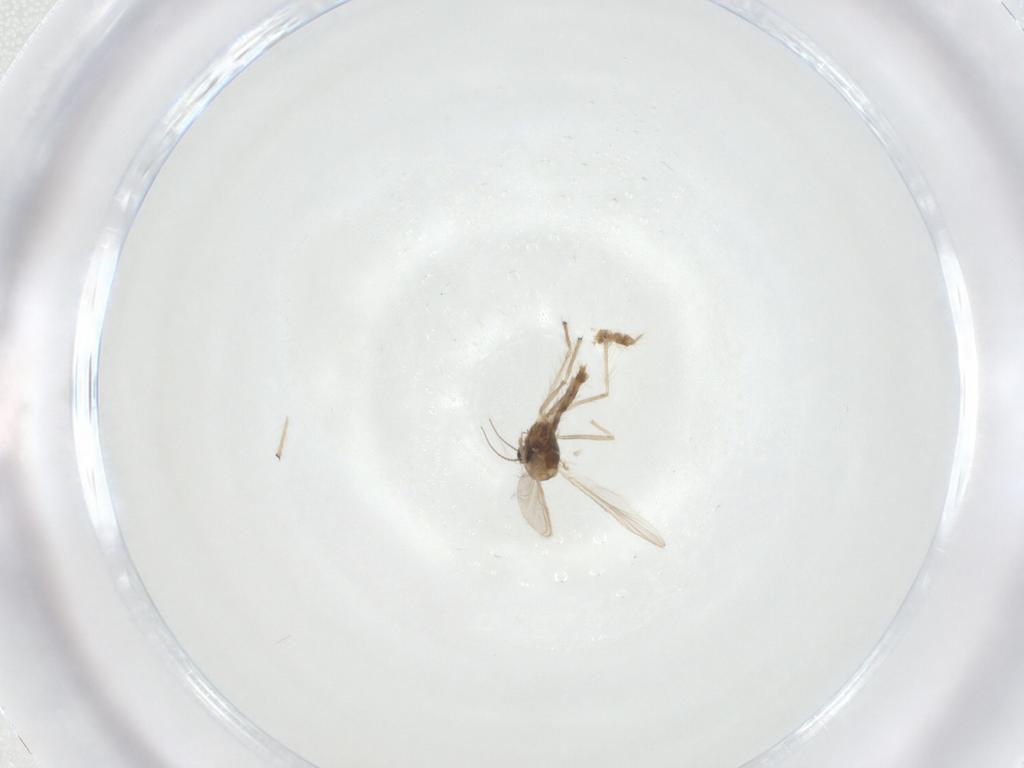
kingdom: Animalia
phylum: Arthropoda
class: Insecta
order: Diptera
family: Chironomidae
